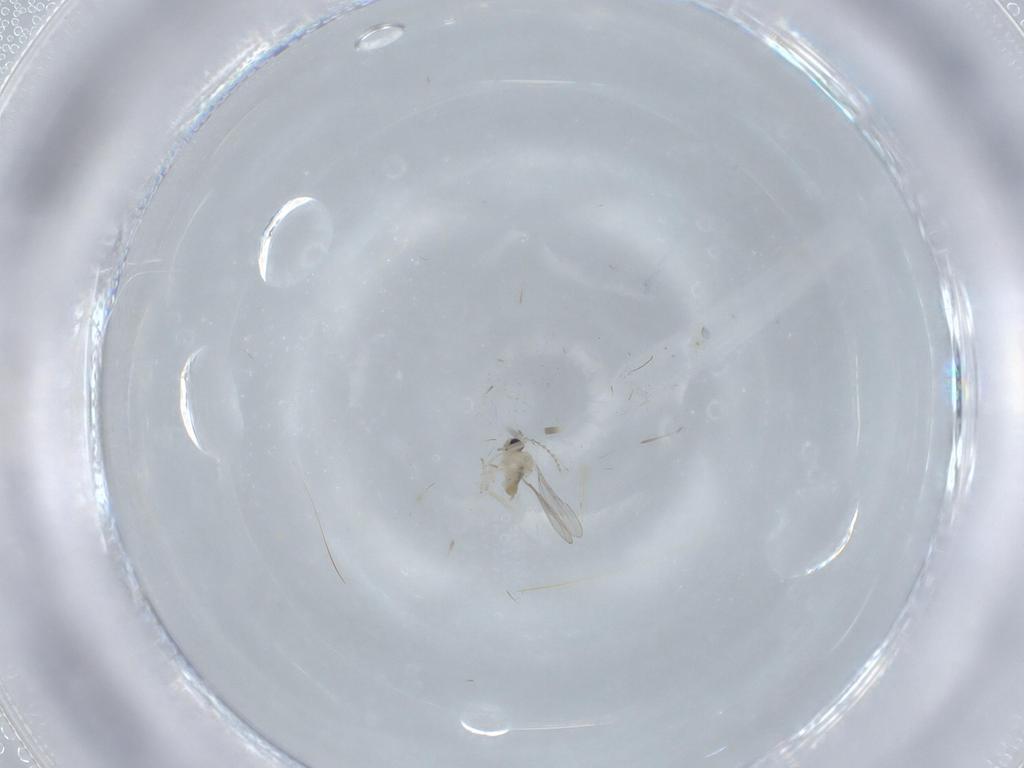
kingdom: Animalia
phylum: Arthropoda
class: Insecta
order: Diptera
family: Cecidomyiidae
